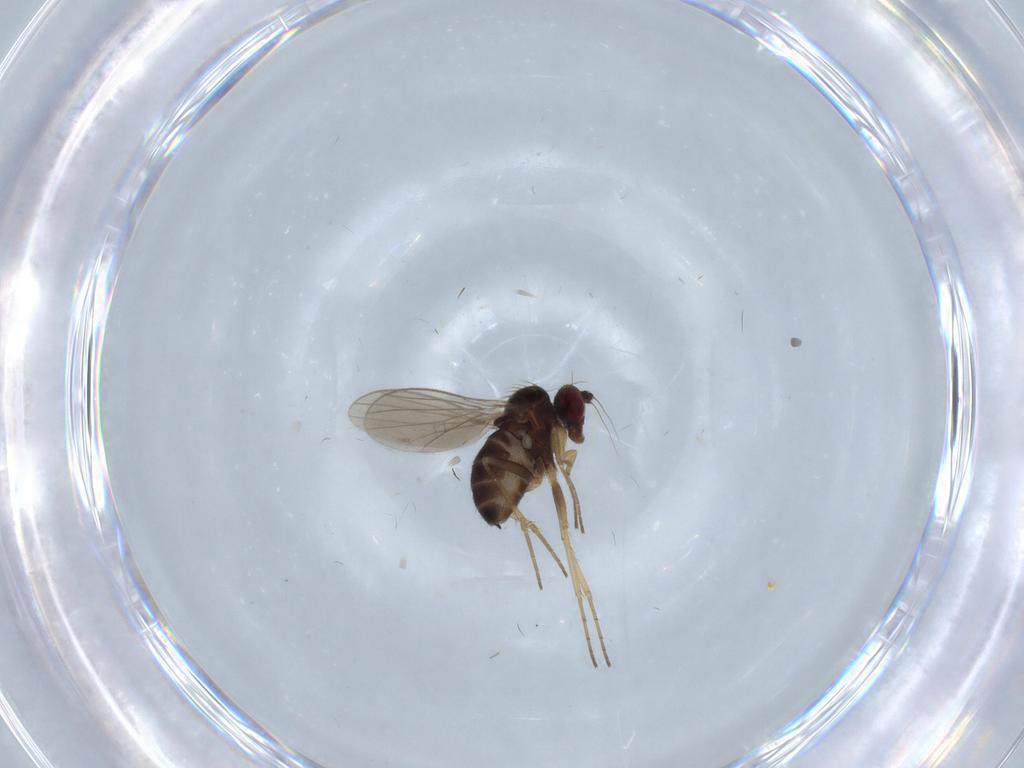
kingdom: Animalia
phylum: Arthropoda
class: Insecta
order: Diptera
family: Dolichopodidae
